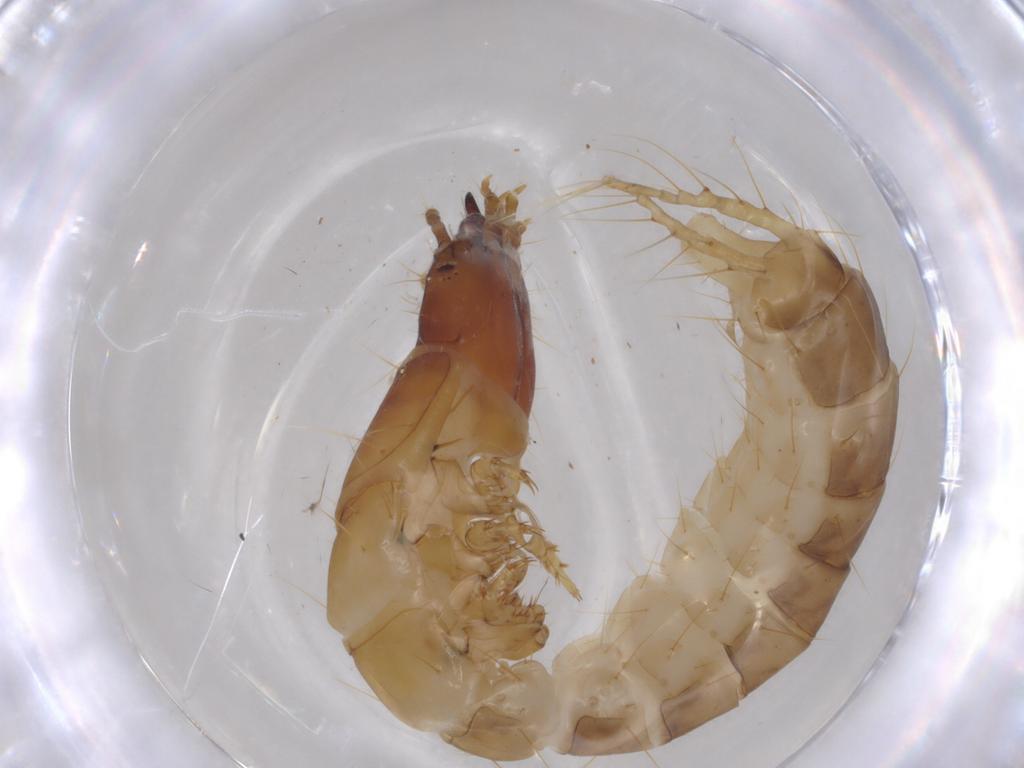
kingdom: Animalia
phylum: Arthropoda
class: Insecta
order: Coleoptera
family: Carabidae
